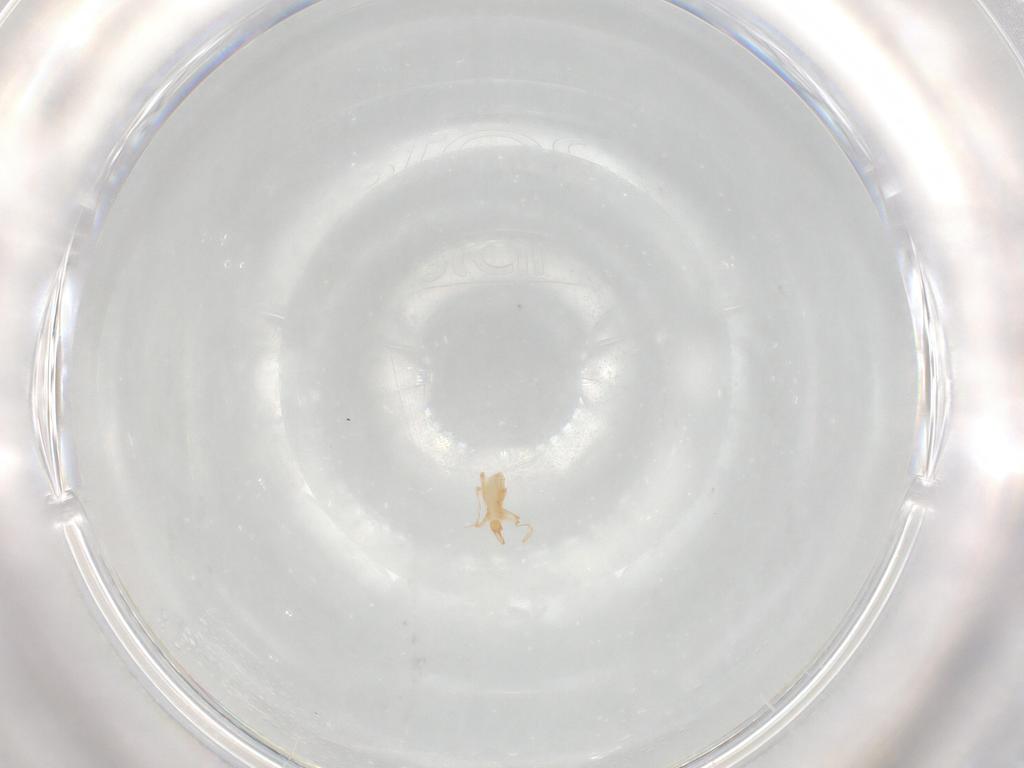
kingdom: Animalia
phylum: Arthropoda
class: Arachnida
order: Trombidiformes
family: Cunaxidae
